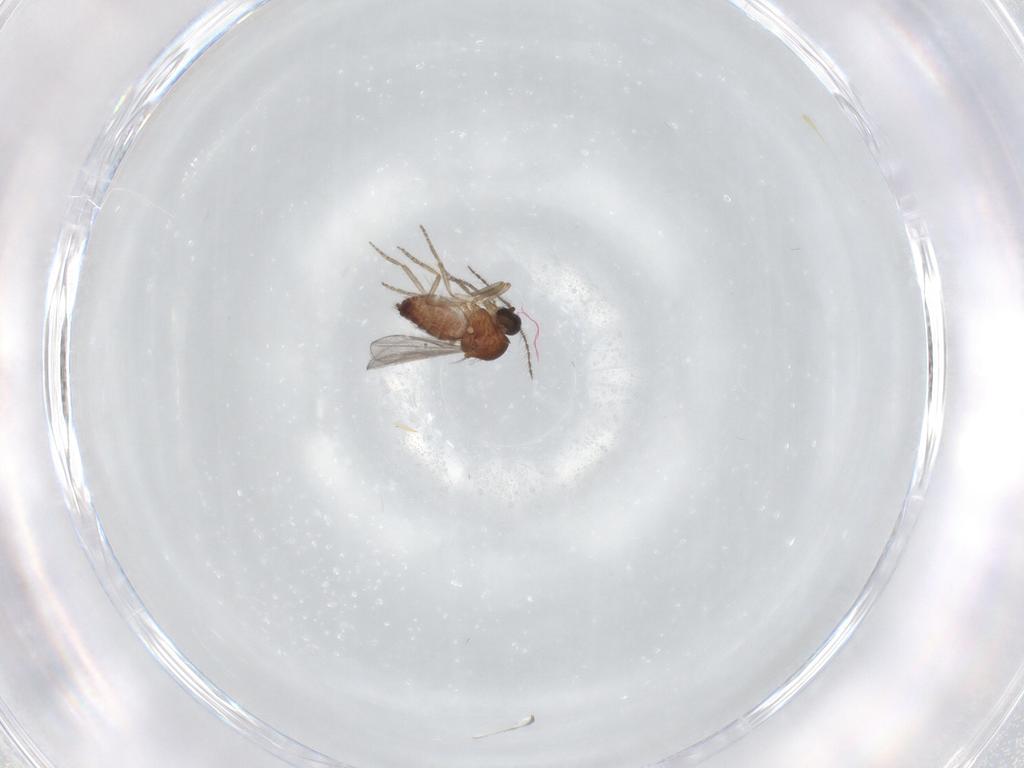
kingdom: Animalia
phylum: Arthropoda
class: Insecta
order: Diptera
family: Ceratopogonidae
